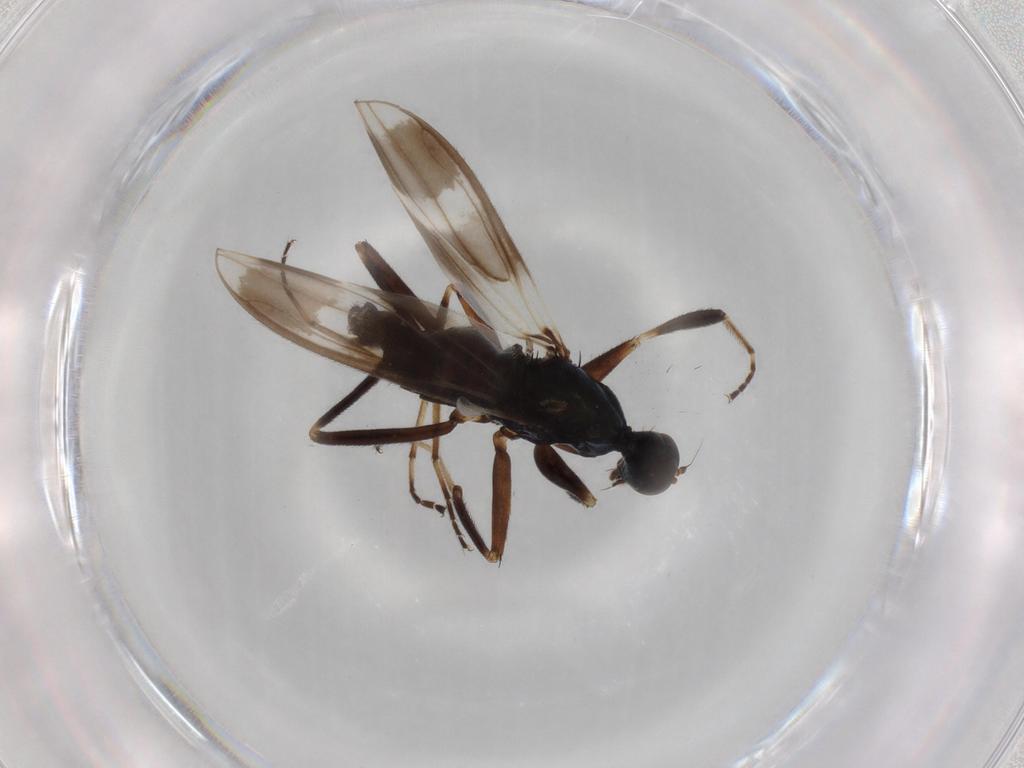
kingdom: Animalia
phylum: Arthropoda
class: Insecta
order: Diptera
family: Hybotidae
